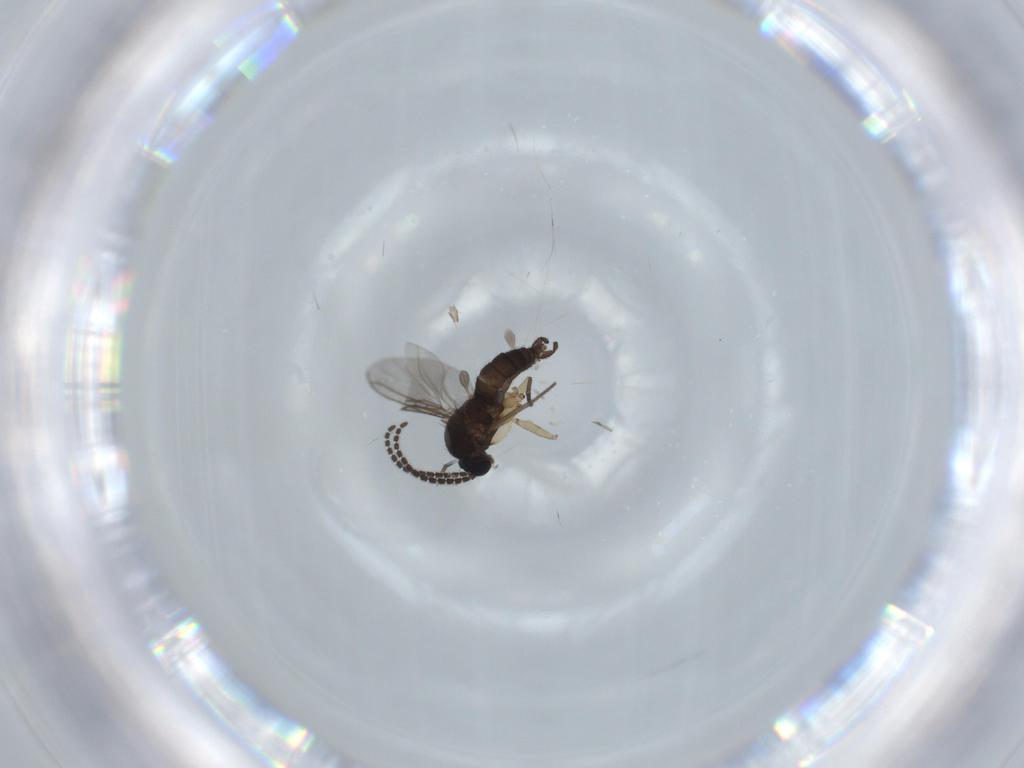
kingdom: Animalia
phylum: Arthropoda
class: Insecta
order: Diptera
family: Sciaridae
